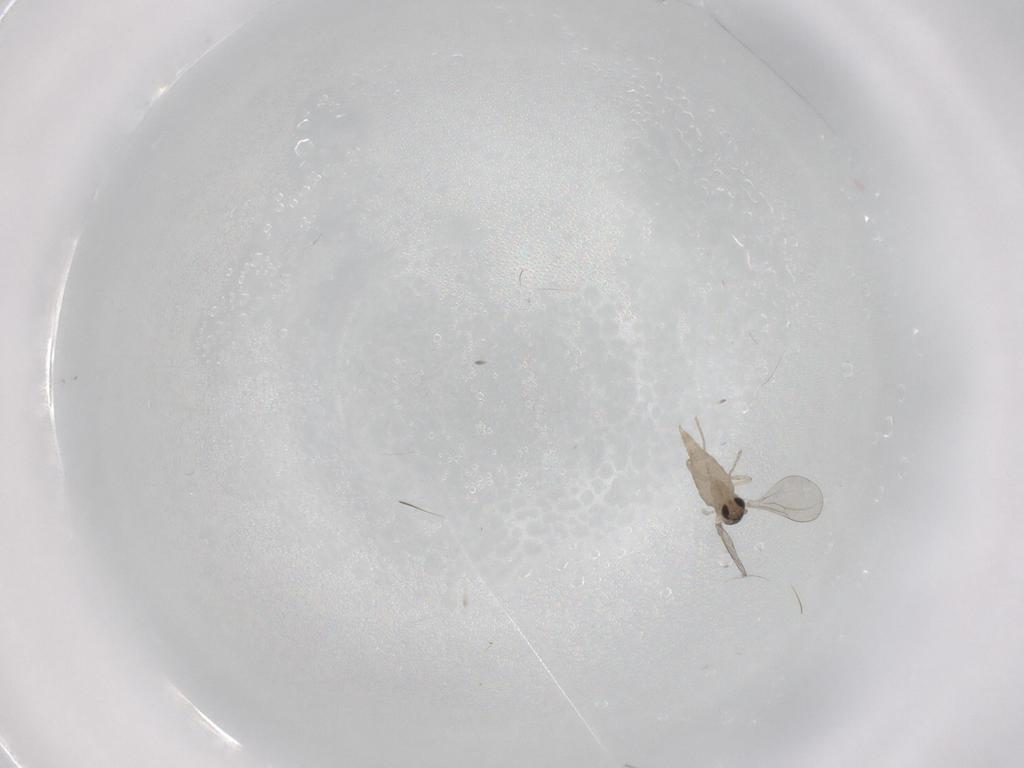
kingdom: Animalia
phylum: Arthropoda
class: Insecta
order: Diptera
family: Cecidomyiidae
